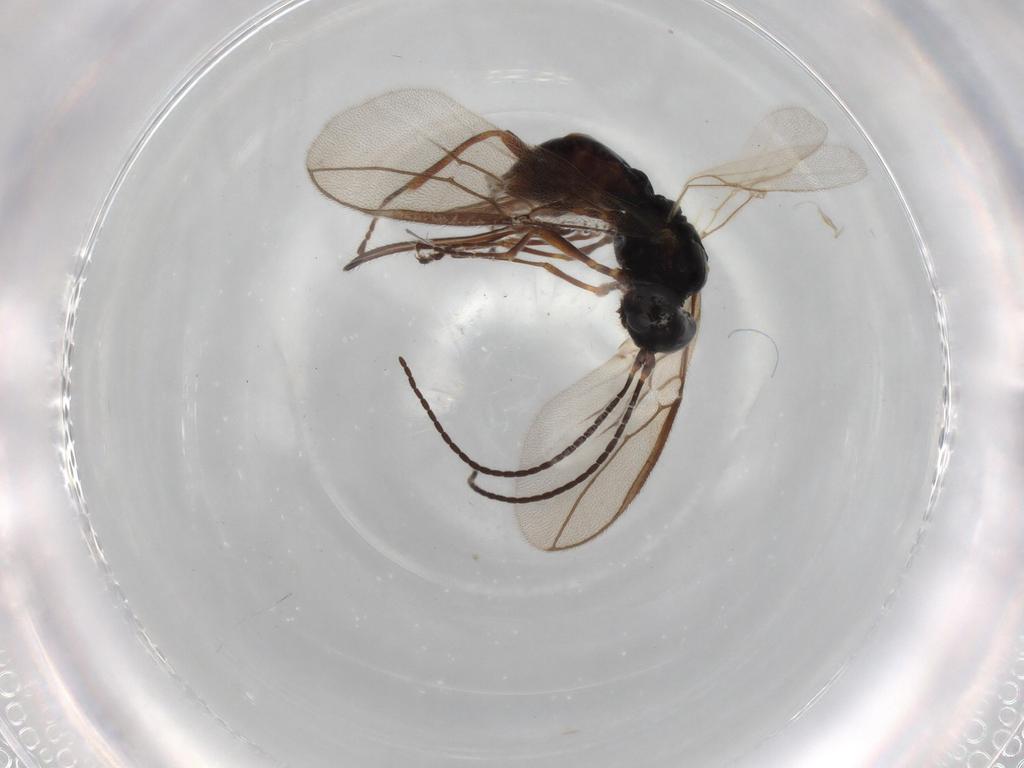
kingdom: Animalia
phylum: Arthropoda
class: Insecta
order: Hymenoptera
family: Braconidae
